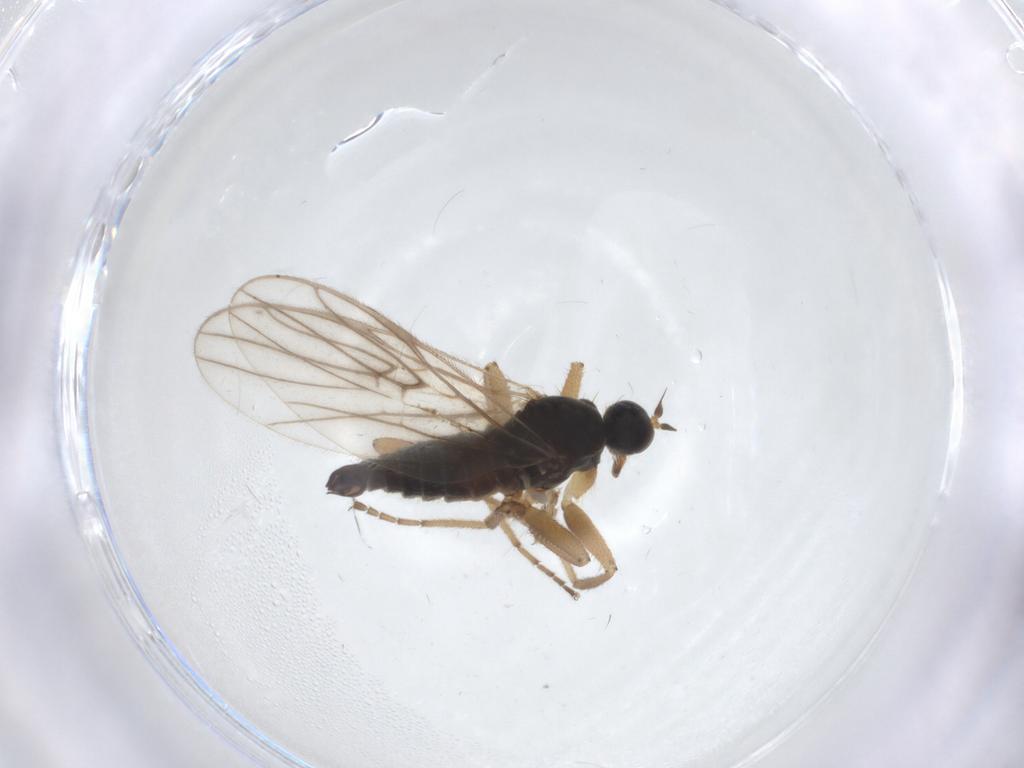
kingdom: Animalia
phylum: Arthropoda
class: Insecta
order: Diptera
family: Hybotidae
